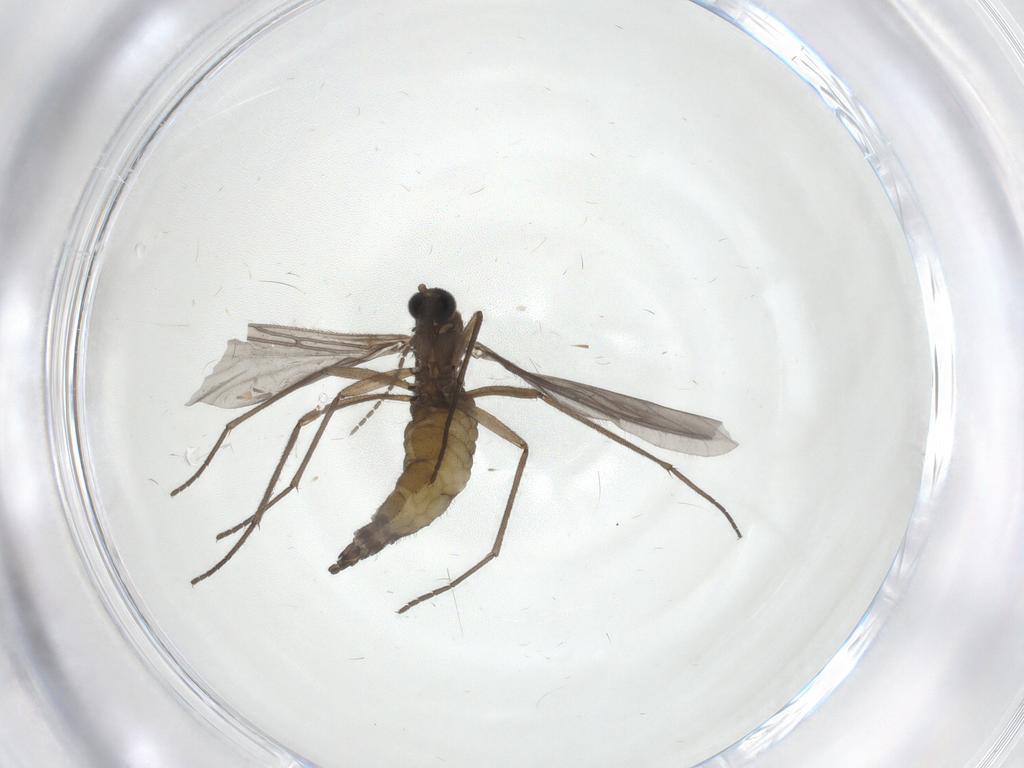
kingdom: Animalia
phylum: Arthropoda
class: Insecta
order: Diptera
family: Sciaridae
